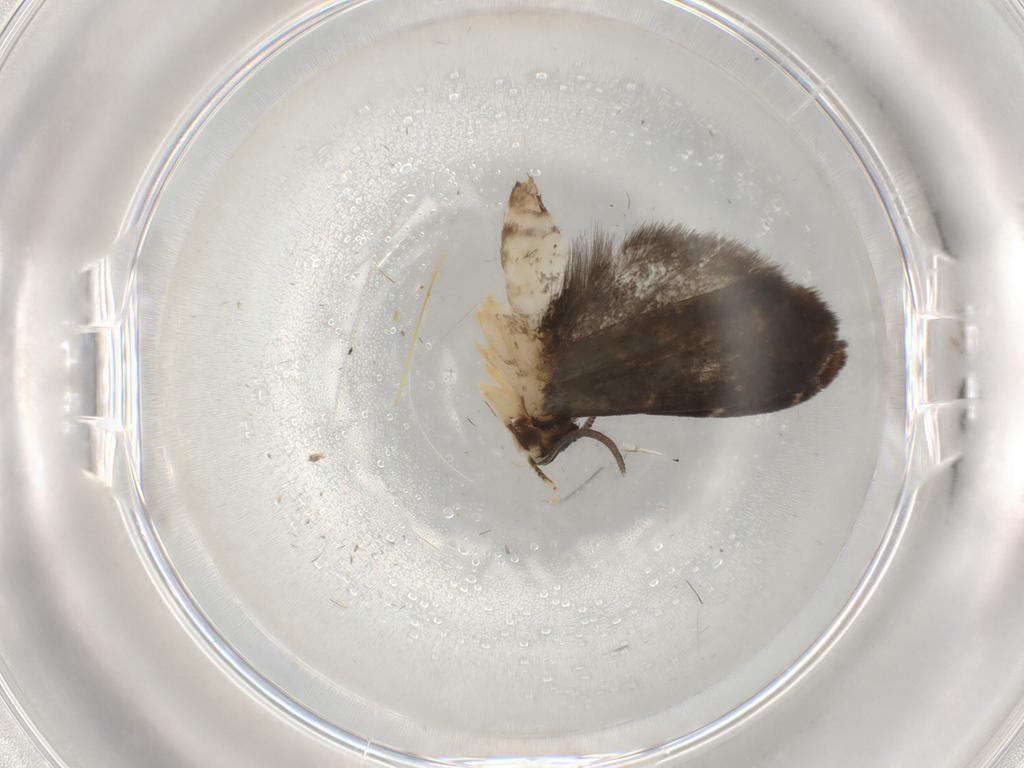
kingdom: Animalia
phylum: Arthropoda
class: Insecta
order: Lepidoptera
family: Dryadaulidae
